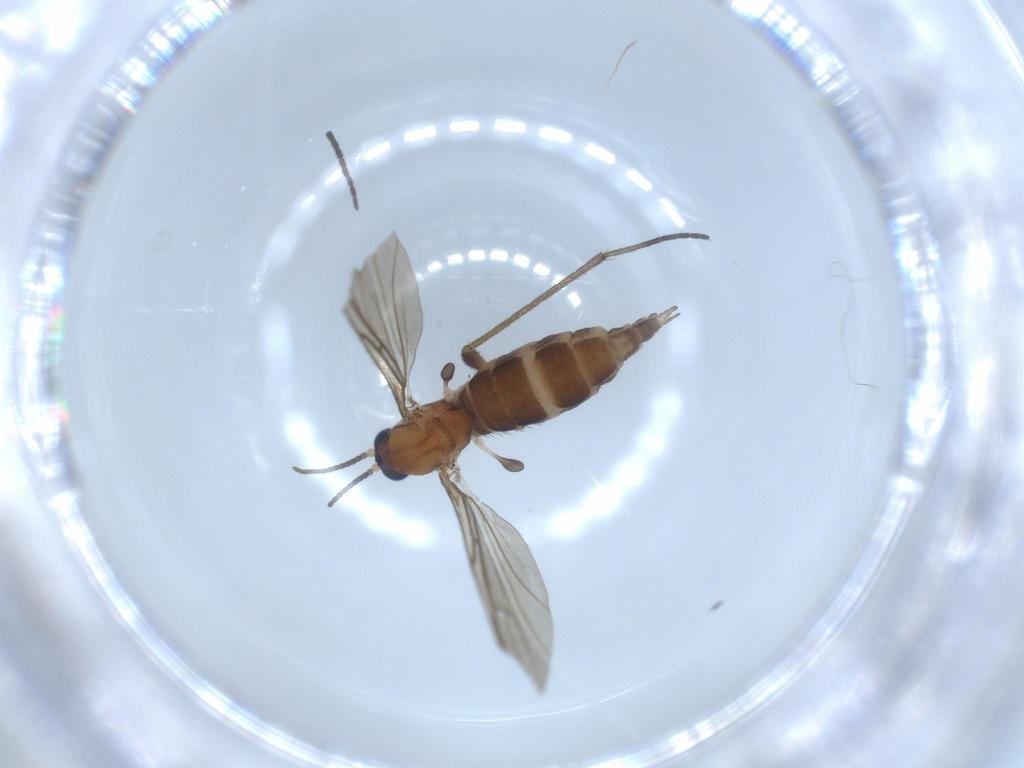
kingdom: Animalia
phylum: Arthropoda
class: Insecta
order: Diptera
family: Sciaridae
